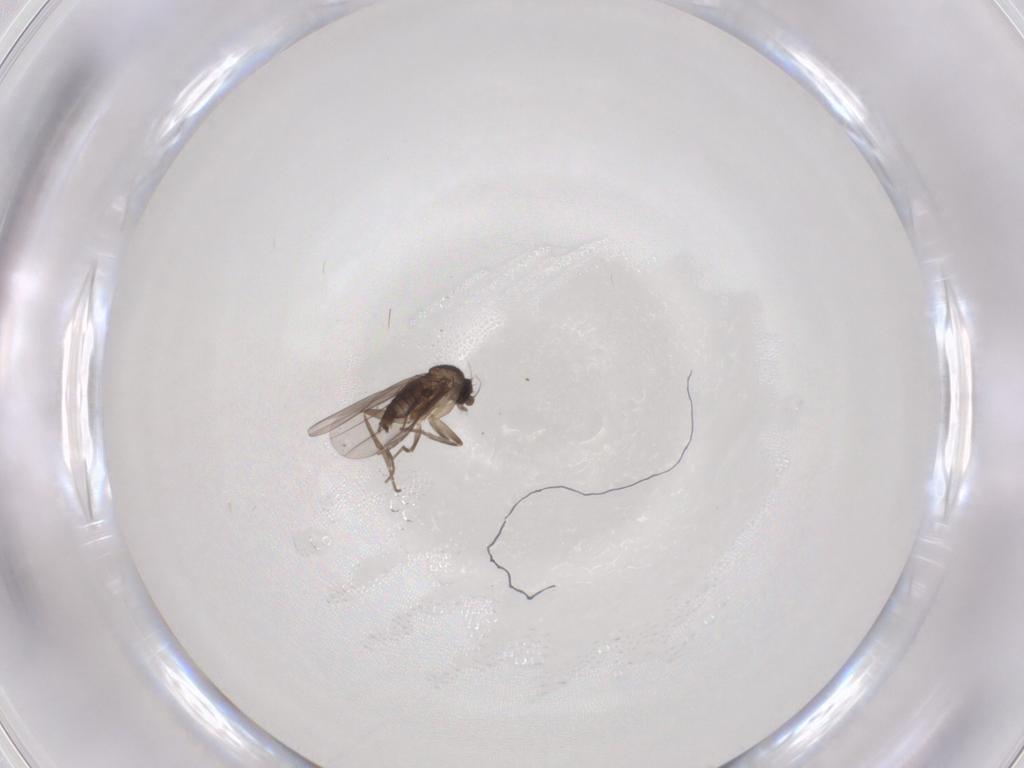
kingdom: Animalia
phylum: Arthropoda
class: Insecta
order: Diptera
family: Phoridae
